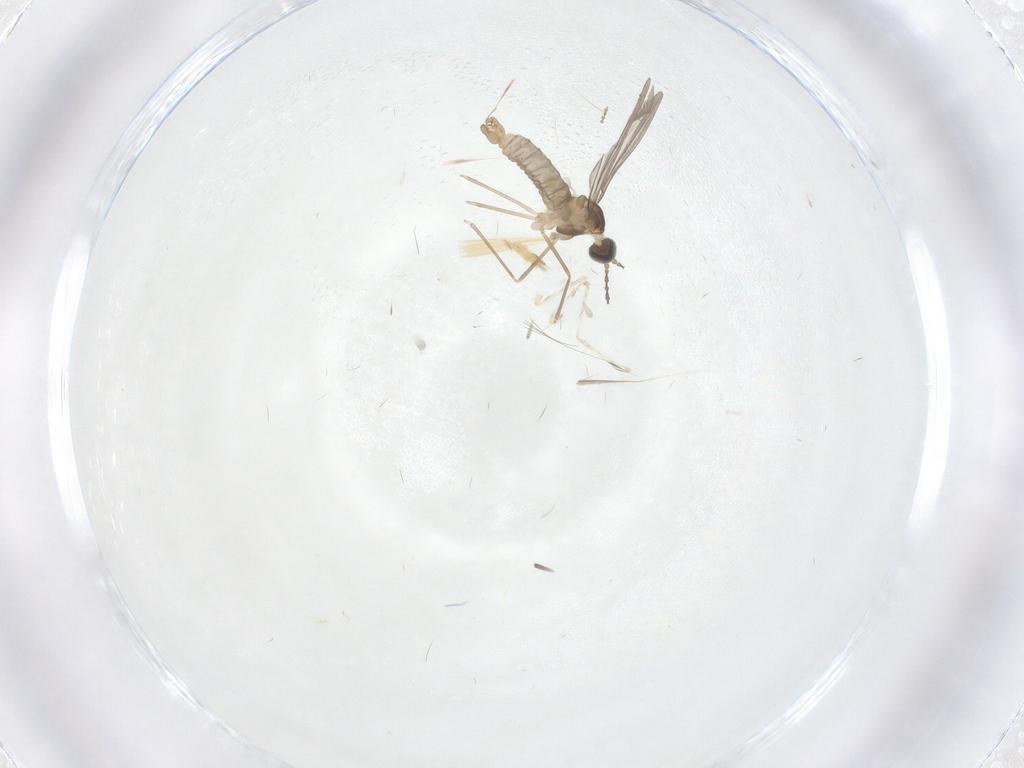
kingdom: Animalia
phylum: Arthropoda
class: Insecta
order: Diptera
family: Cecidomyiidae
